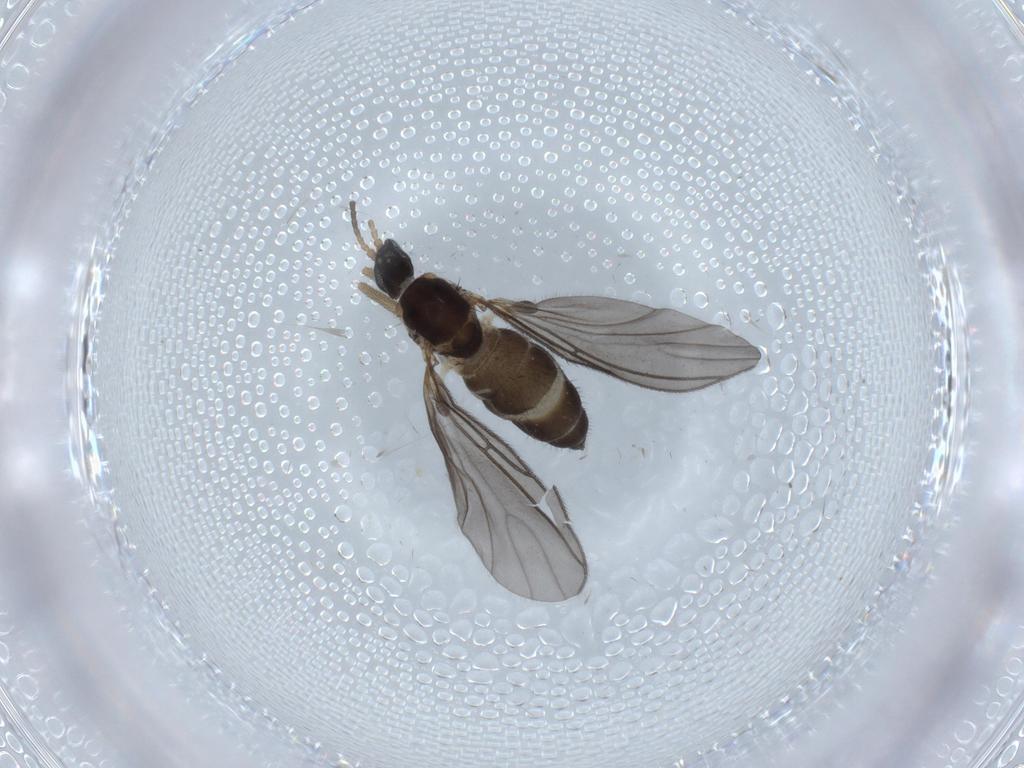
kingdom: Animalia
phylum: Arthropoda
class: Insecta
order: Diptera
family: Sciaridae
